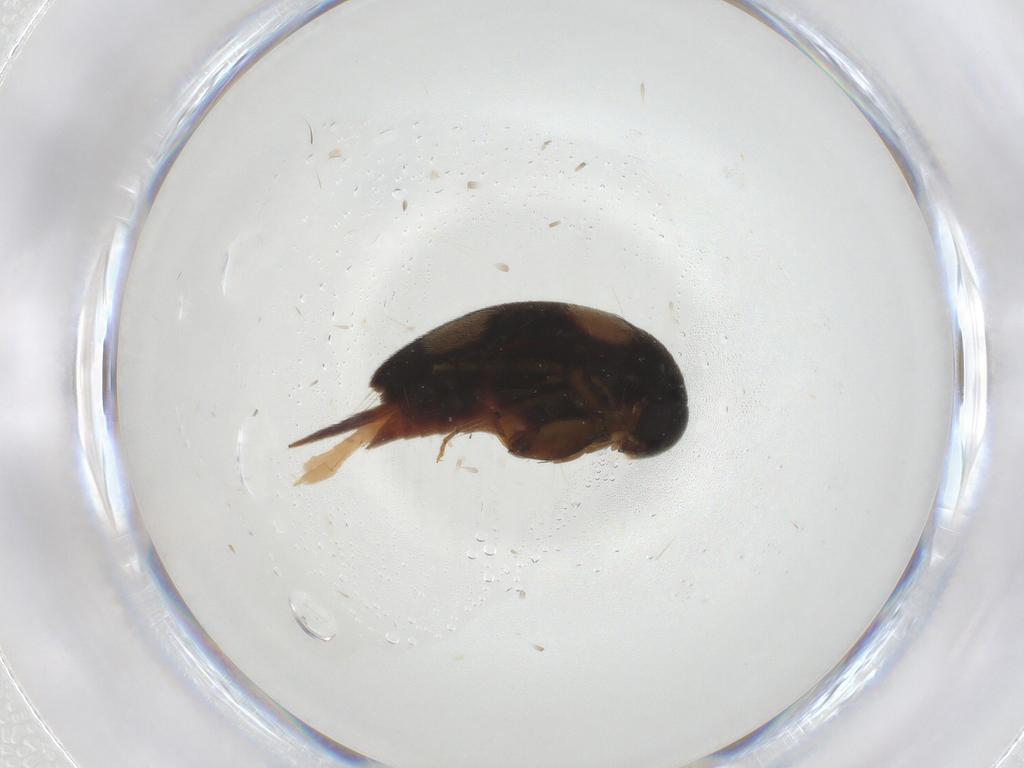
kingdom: Animalia
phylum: Arthropoda
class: Insecta
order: Coleoptera
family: Mordellidae
